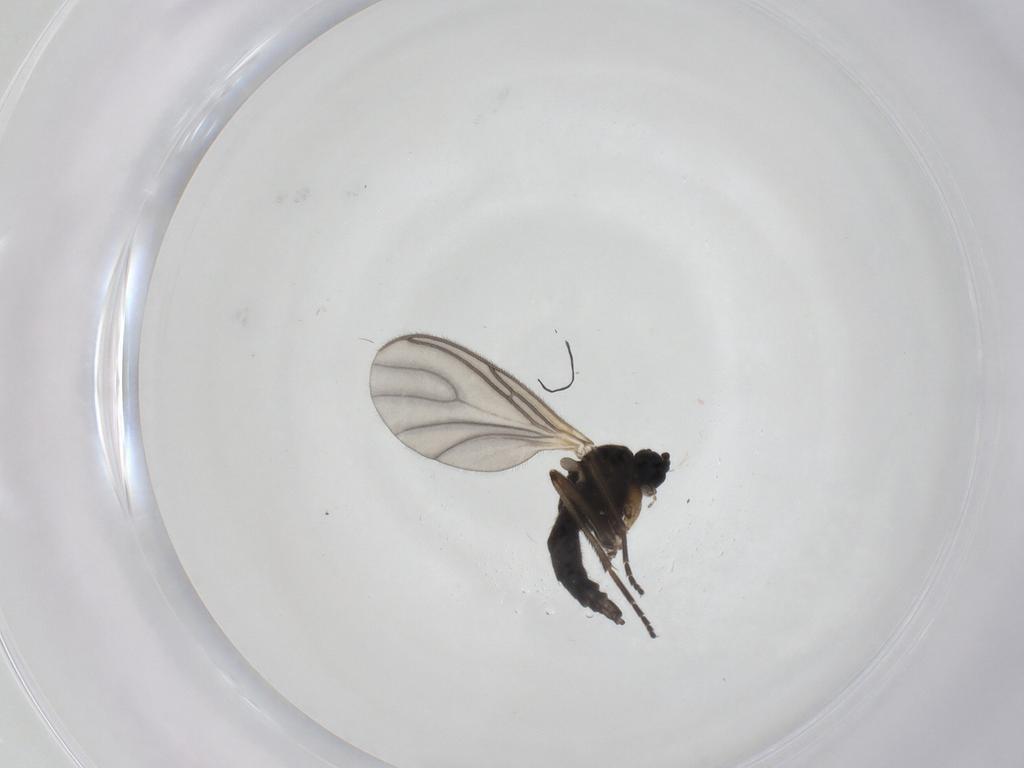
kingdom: Animalia
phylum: Arthropoda
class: Insecta
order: Diptera
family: Sciaridae
